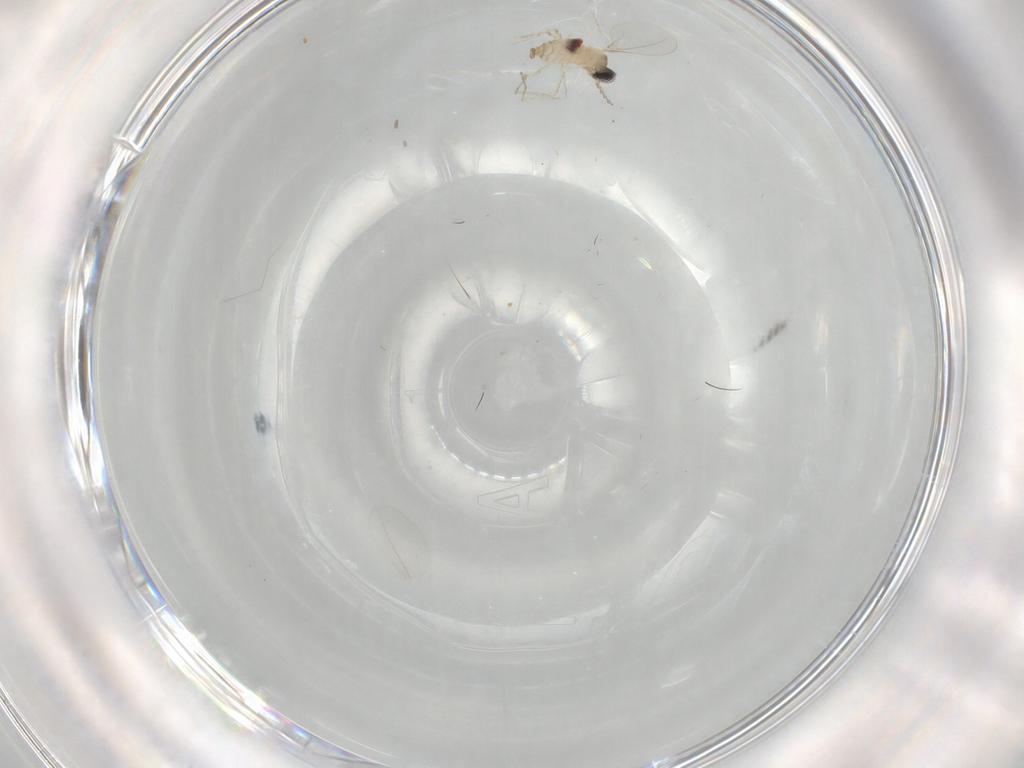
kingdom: Animalia
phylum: Arthropoda
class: Insecta
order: Diptera
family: Cecidomyiidae
